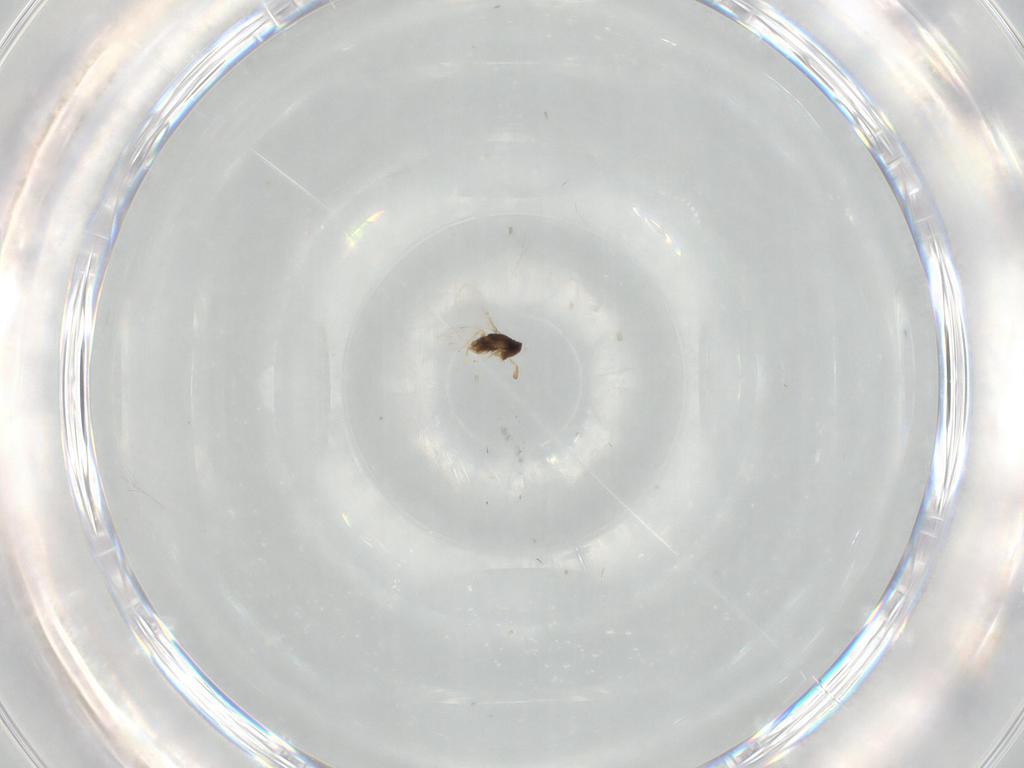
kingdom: Animalia
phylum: Arthropoda
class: Insecta
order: Hymenoptera
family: Encyrtidae
